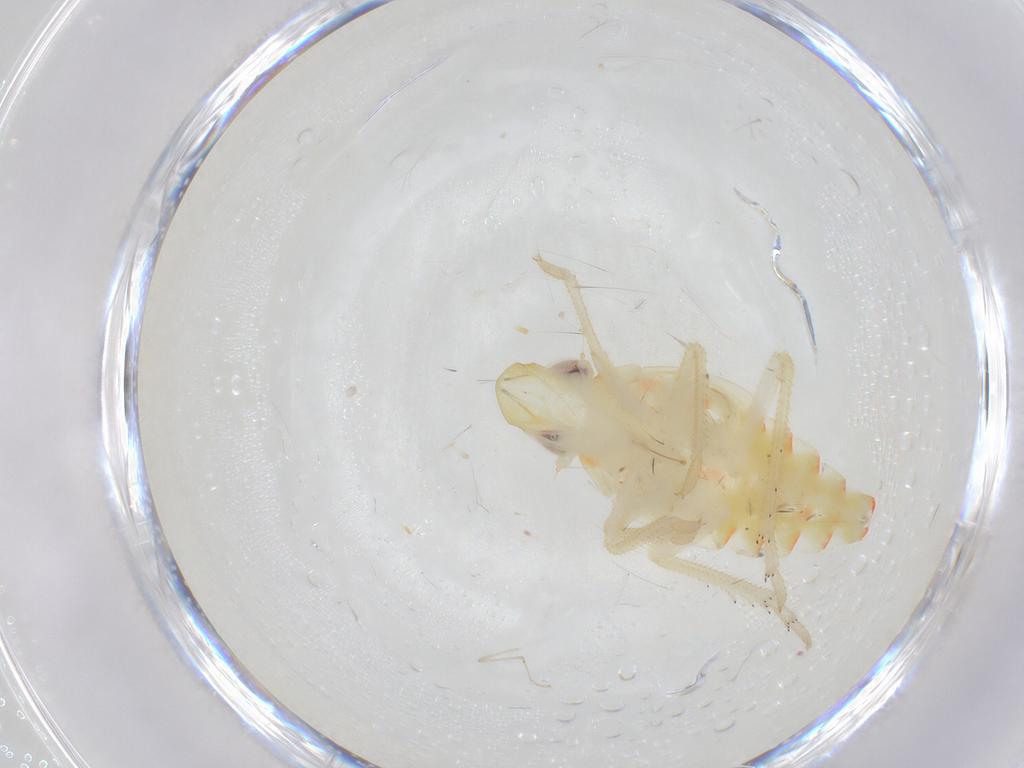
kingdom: Animalia
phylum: Arthropoda
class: Insecta
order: Hemiptera
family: Tropiduchidae
